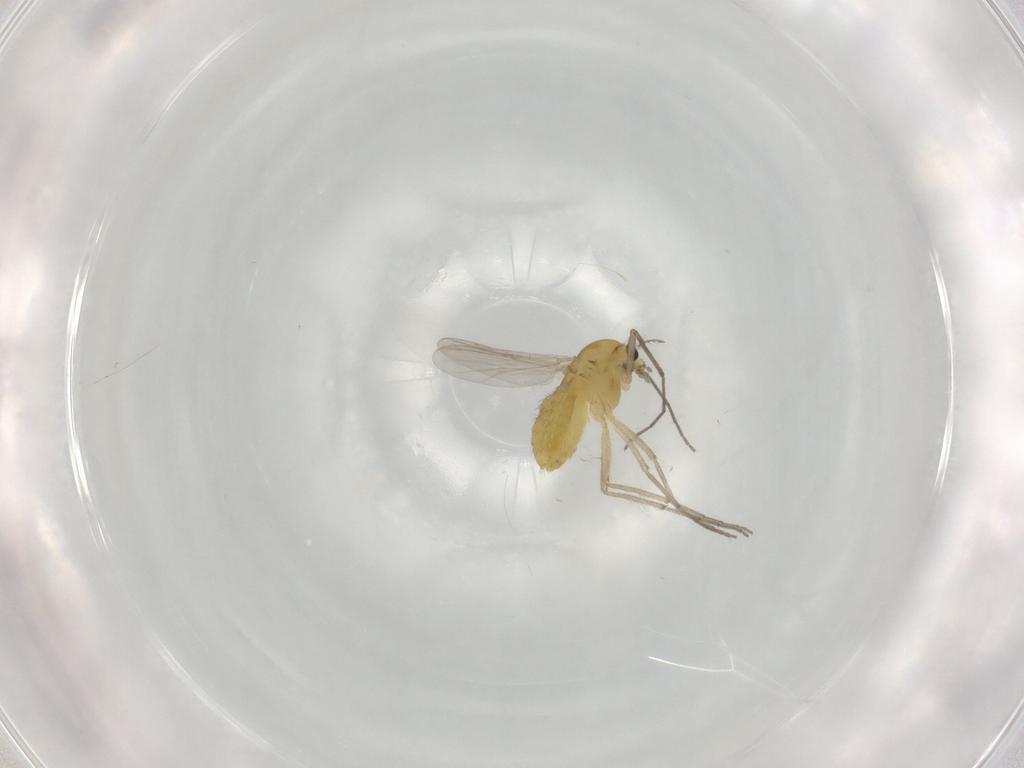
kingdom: Animalia
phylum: Arthropoda
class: Insecta
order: Diptera
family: Chironomidae
